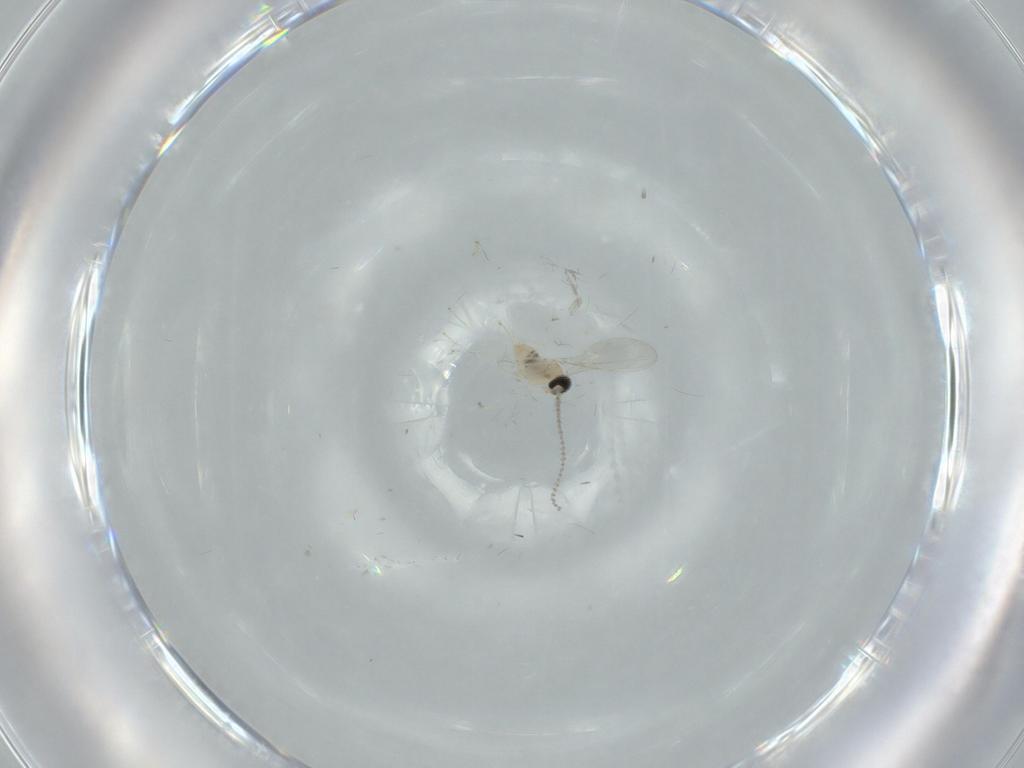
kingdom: Animalia
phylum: Arthropoda
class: Insecta
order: Diptera
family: Cecidomyiidae
